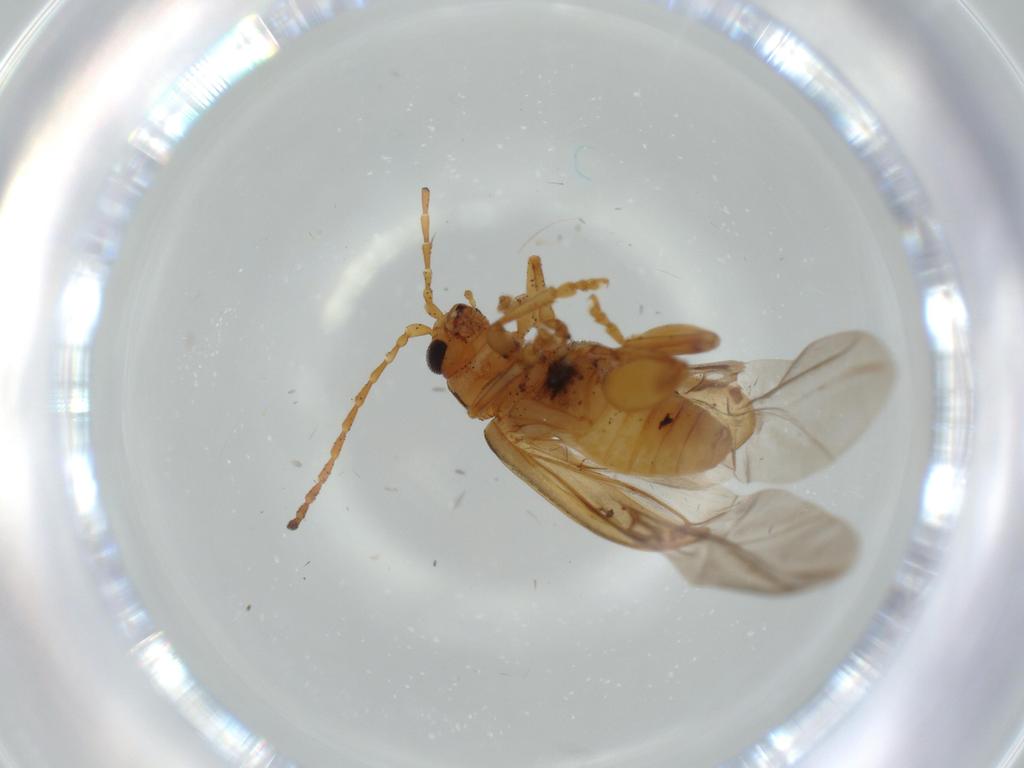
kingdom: Animalia
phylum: Arthropoda
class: Insecta
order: Coleoptera
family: Chrysomelidae
